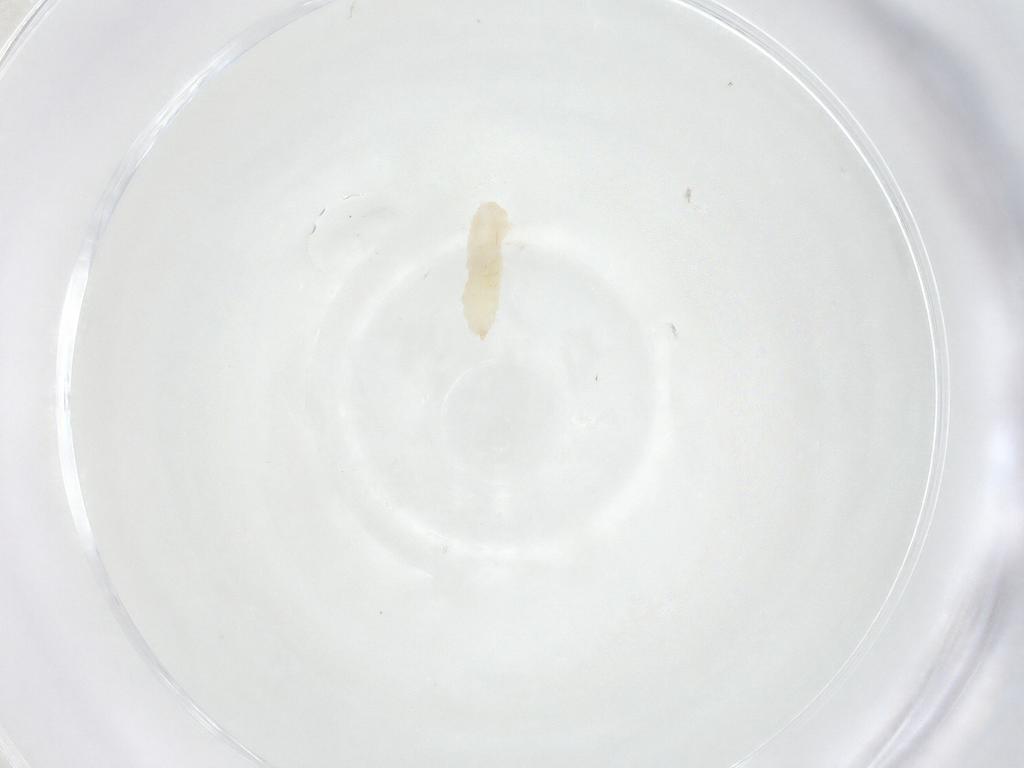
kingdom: Animalia
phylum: Arthropoda
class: Insecta
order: Diptera
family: Cecidomyiidae
